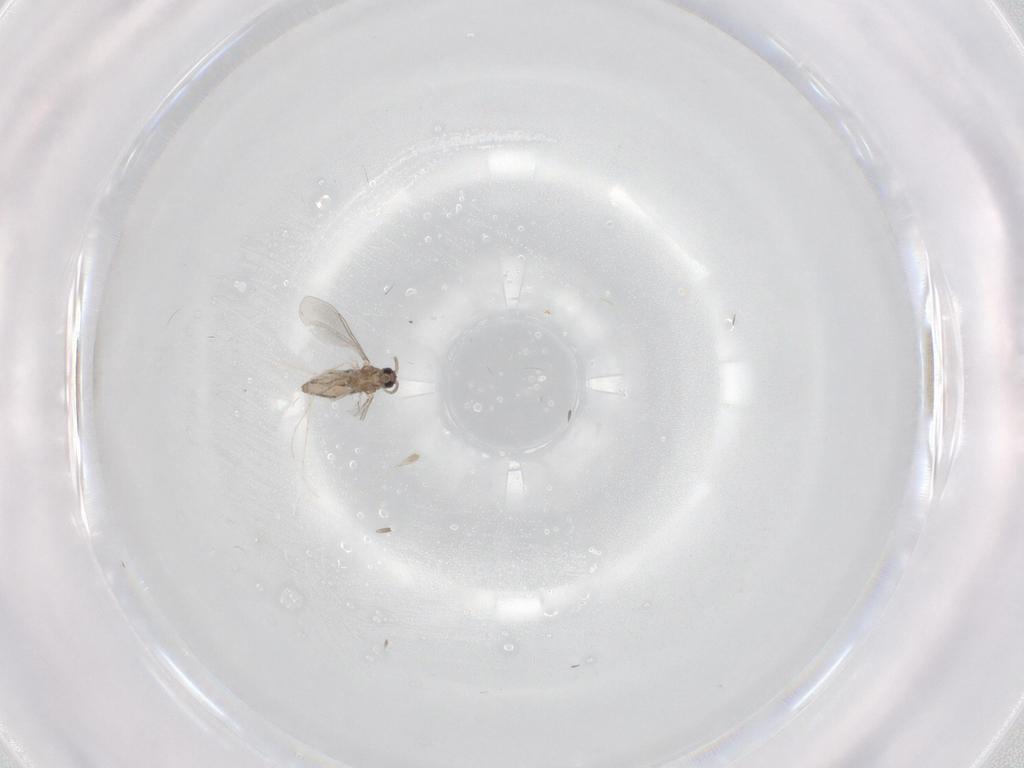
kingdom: Animalia
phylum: Arthropoda
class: Insecta
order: Diptera
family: Cecidomyiidae
